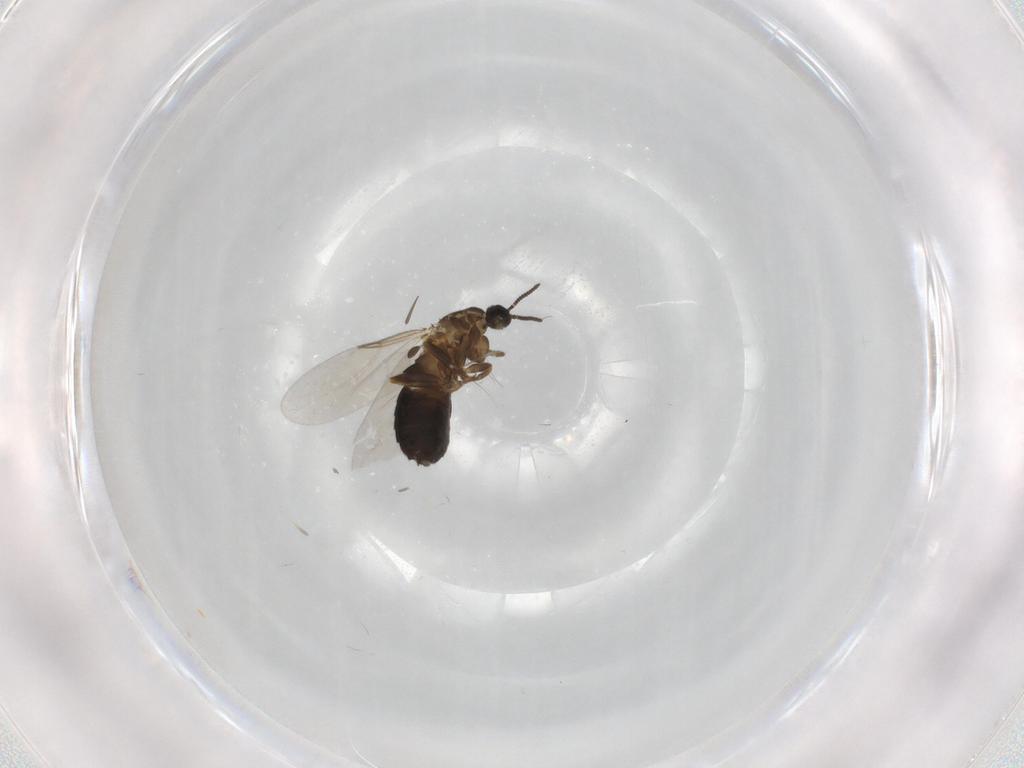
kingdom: Animalia
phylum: Arthropoda
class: Insecta
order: Diptera
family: Scatopsidae
